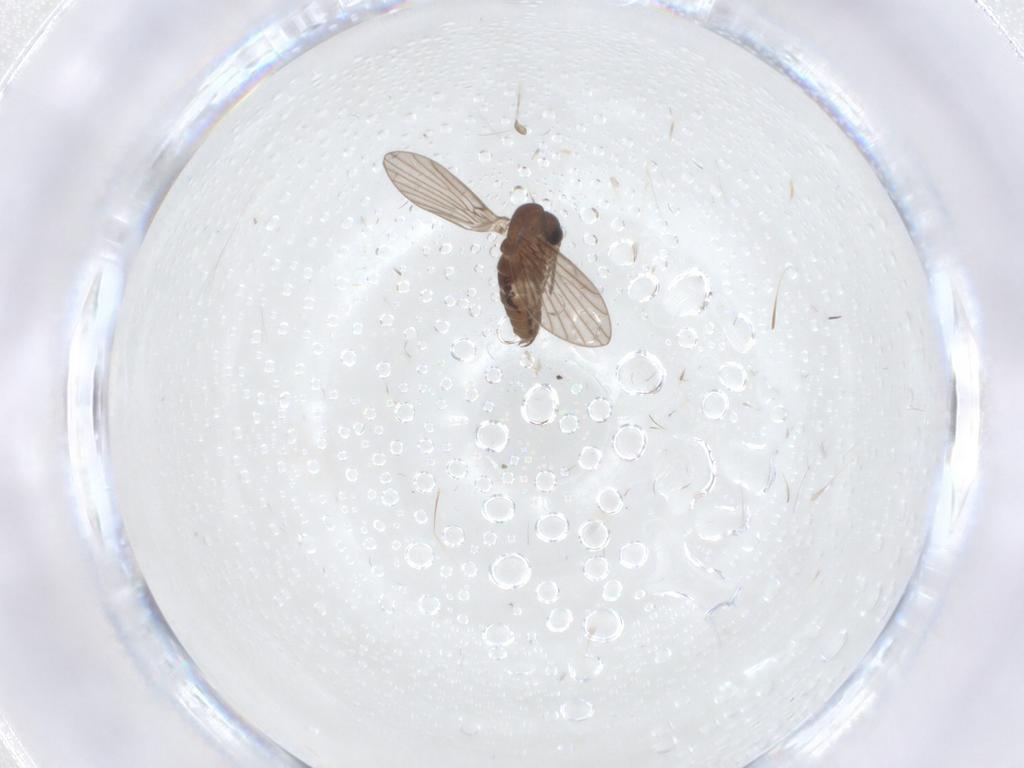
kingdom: Animalia
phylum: Arthropoda
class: Insecta
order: Diptera
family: Psychodidae
